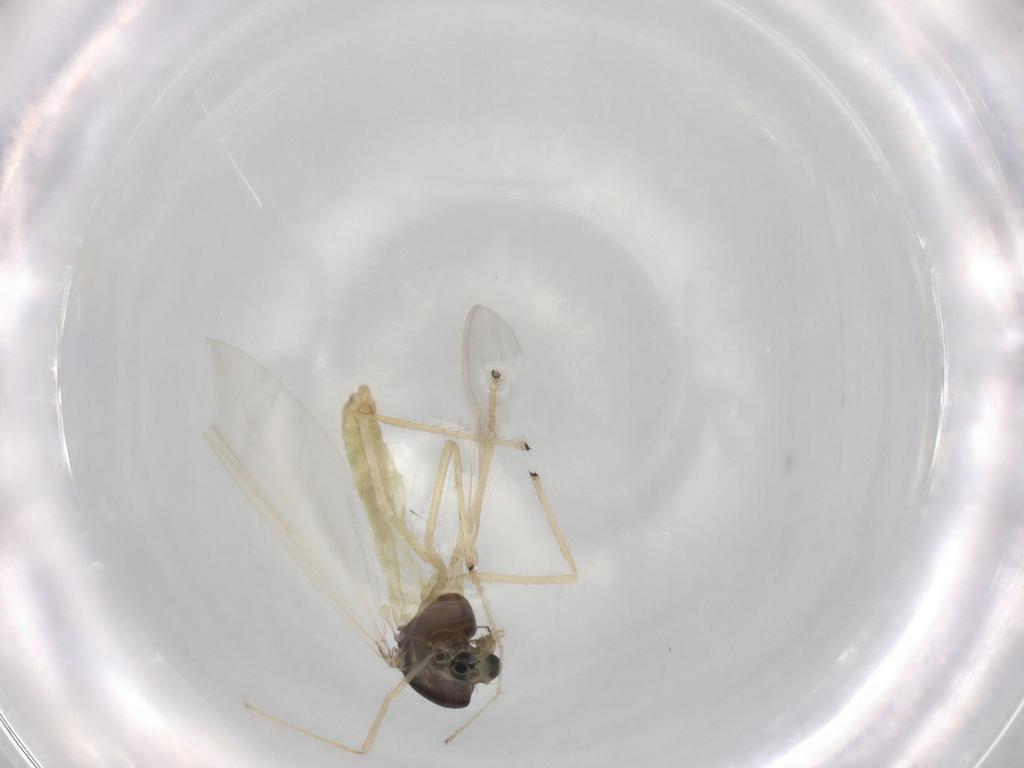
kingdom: Animalia
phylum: Arthropoda
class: Insecta
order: Diptera
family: Chironomidae
